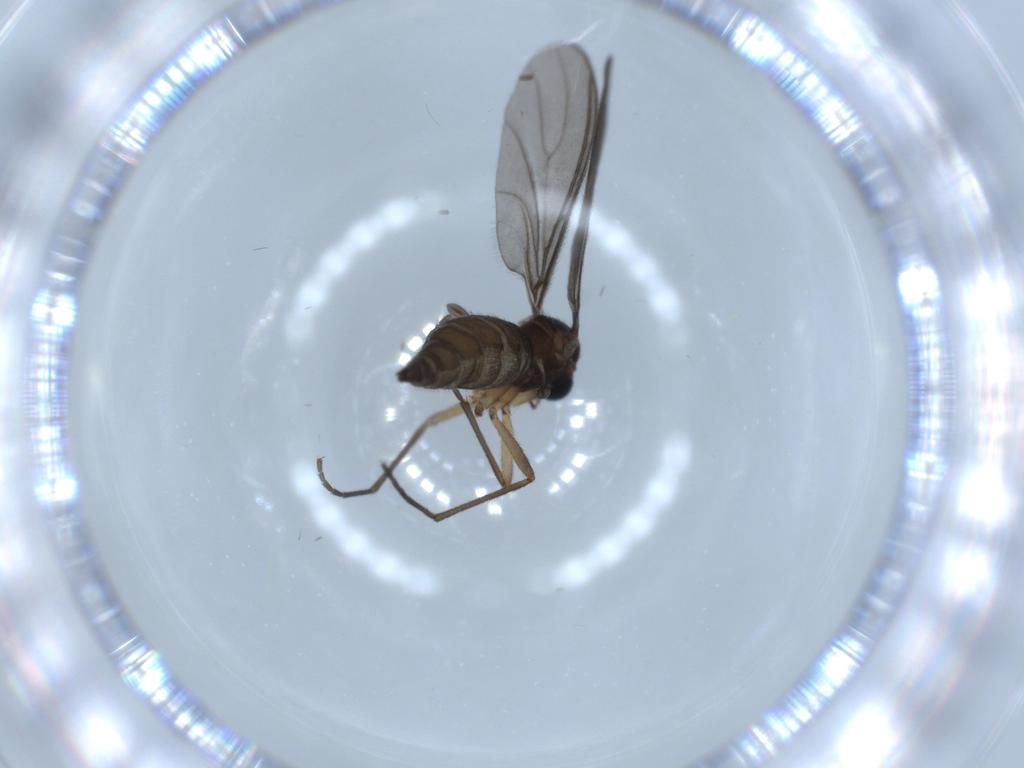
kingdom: Animalia
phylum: Arthropoda
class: Insecta
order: Diptera
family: Sciaridae
